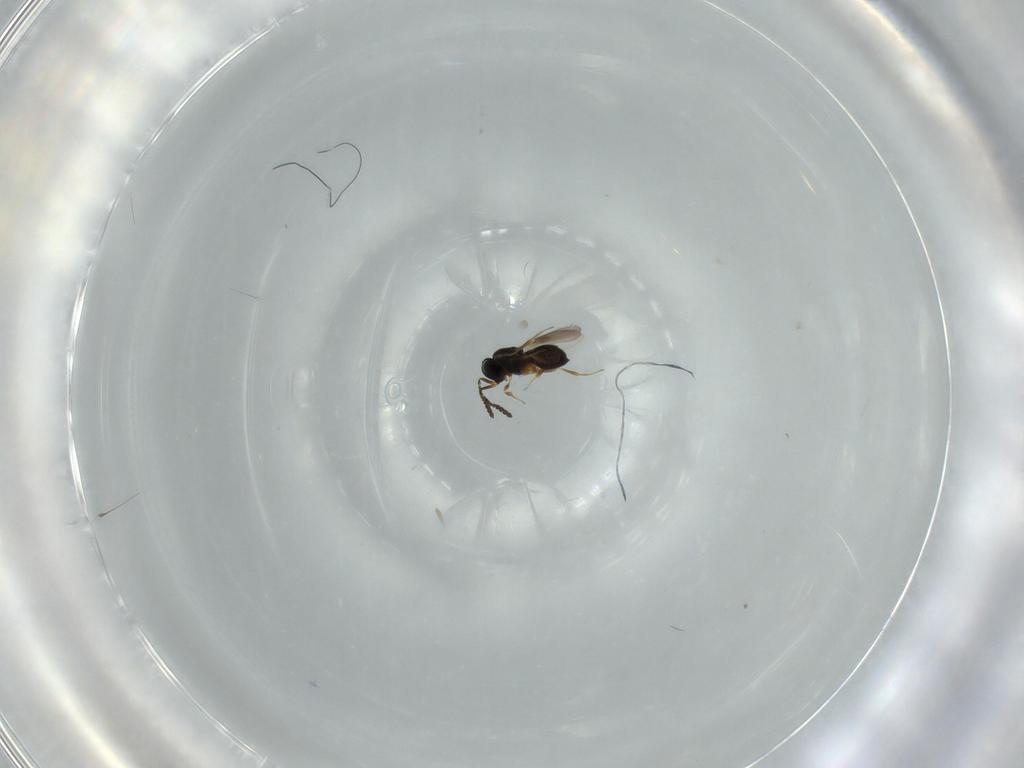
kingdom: Animalia
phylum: Arthropoda
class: Insecta
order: Hymenoptera
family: Scelionidae
